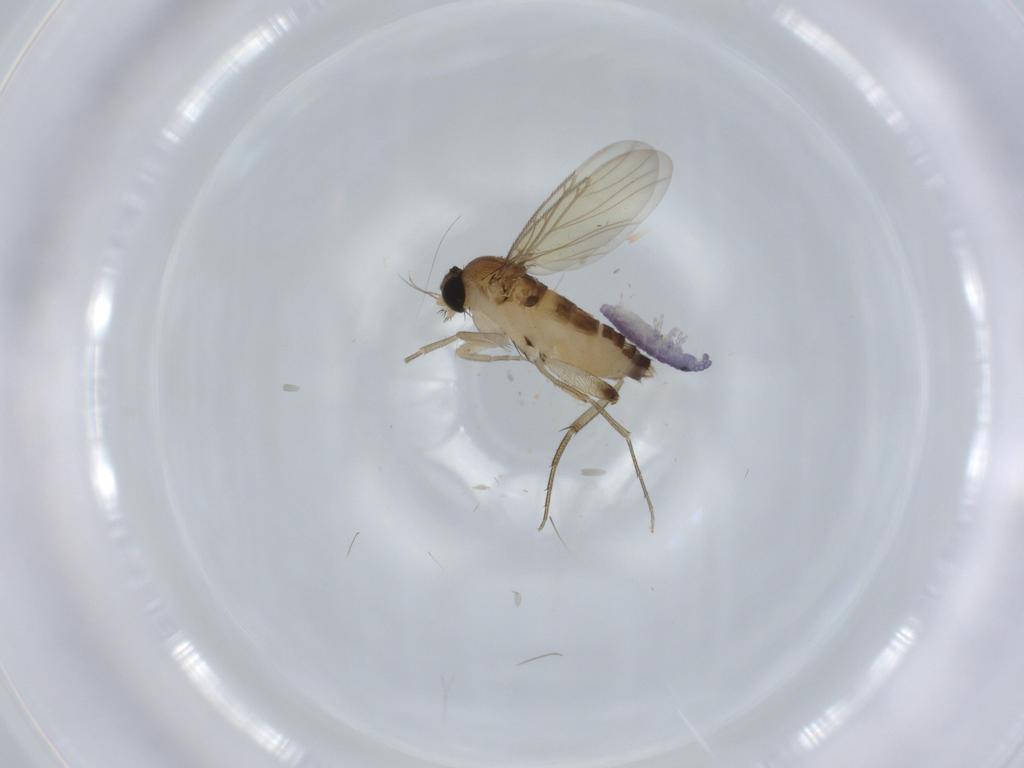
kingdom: Animalia
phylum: Arthropoda
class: Insecta
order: Diptera
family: Phoridae
